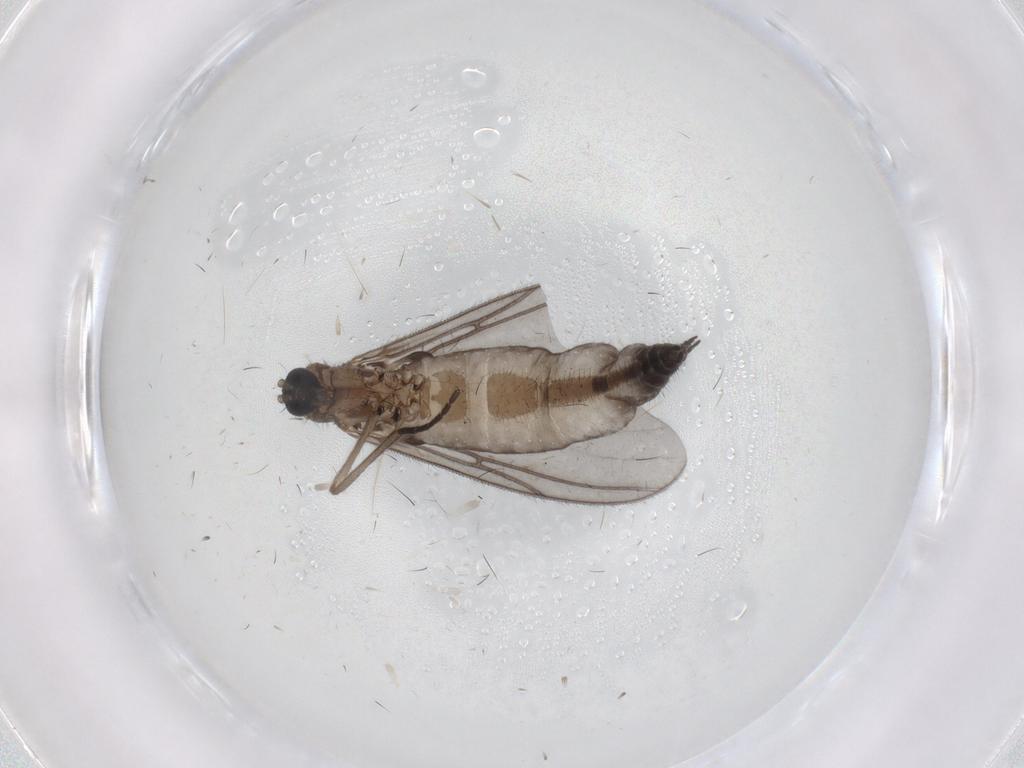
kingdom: Animalia
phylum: Arthropoda
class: Insecta
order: Diptera
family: Sciaridae
